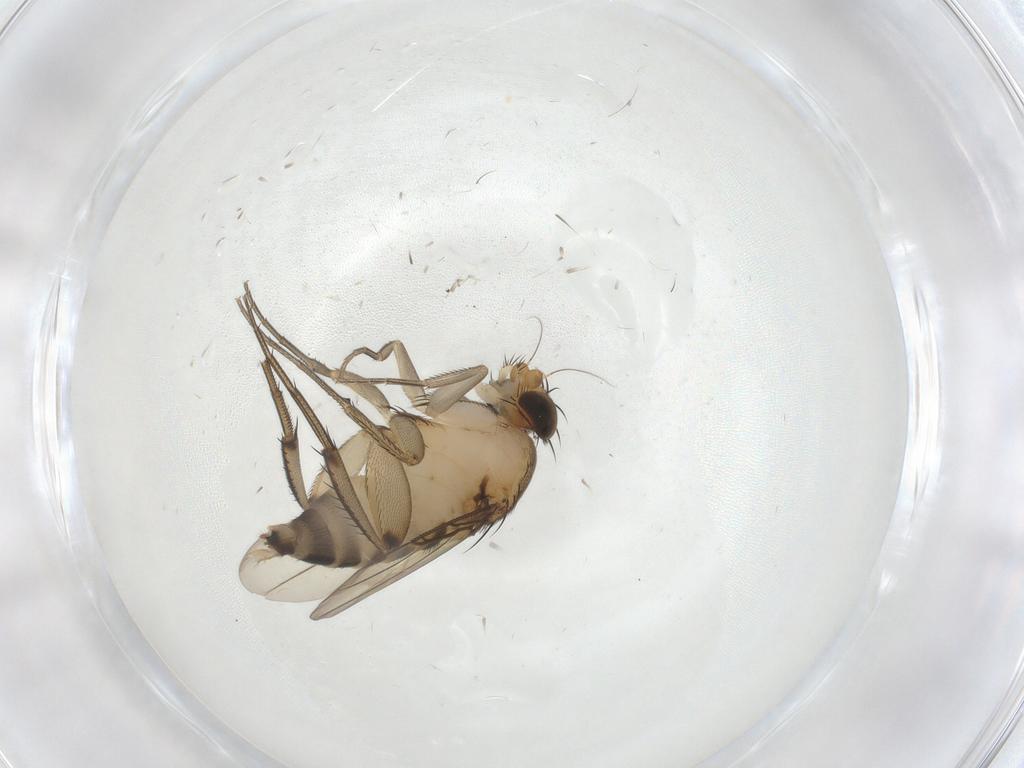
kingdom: Animalia
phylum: Arthropoda
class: Insecta
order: Diptera
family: Phoridae
